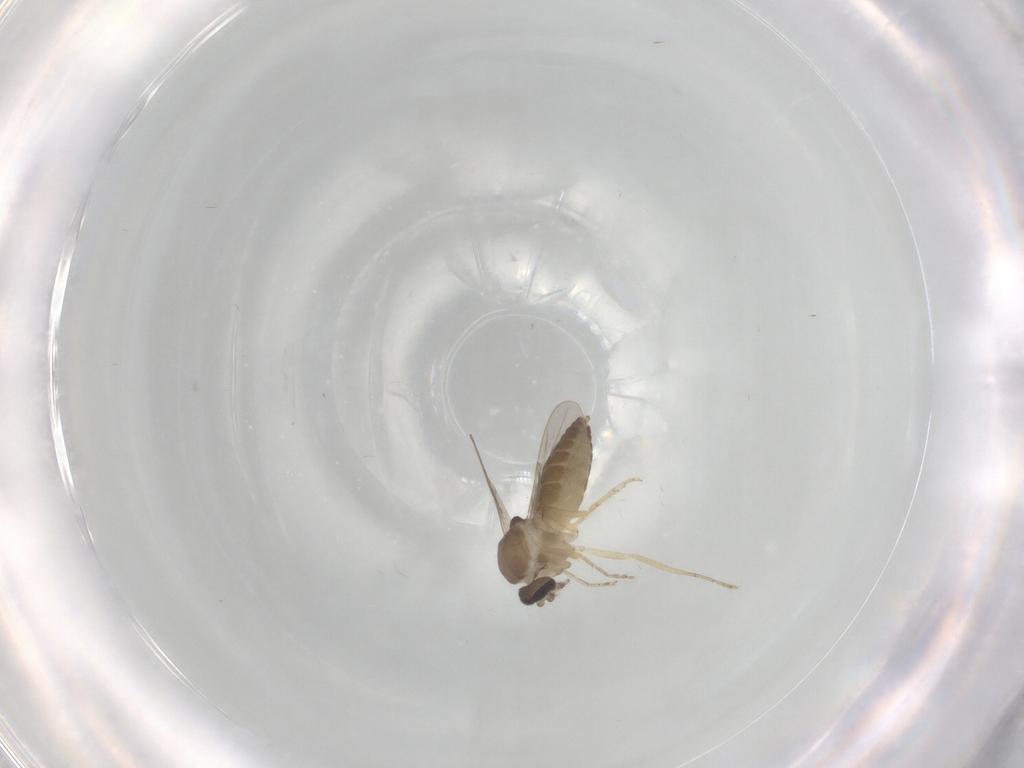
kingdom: Animalia
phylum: Arthropoda
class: Insecta
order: Diptera
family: Ceratopogonidae
